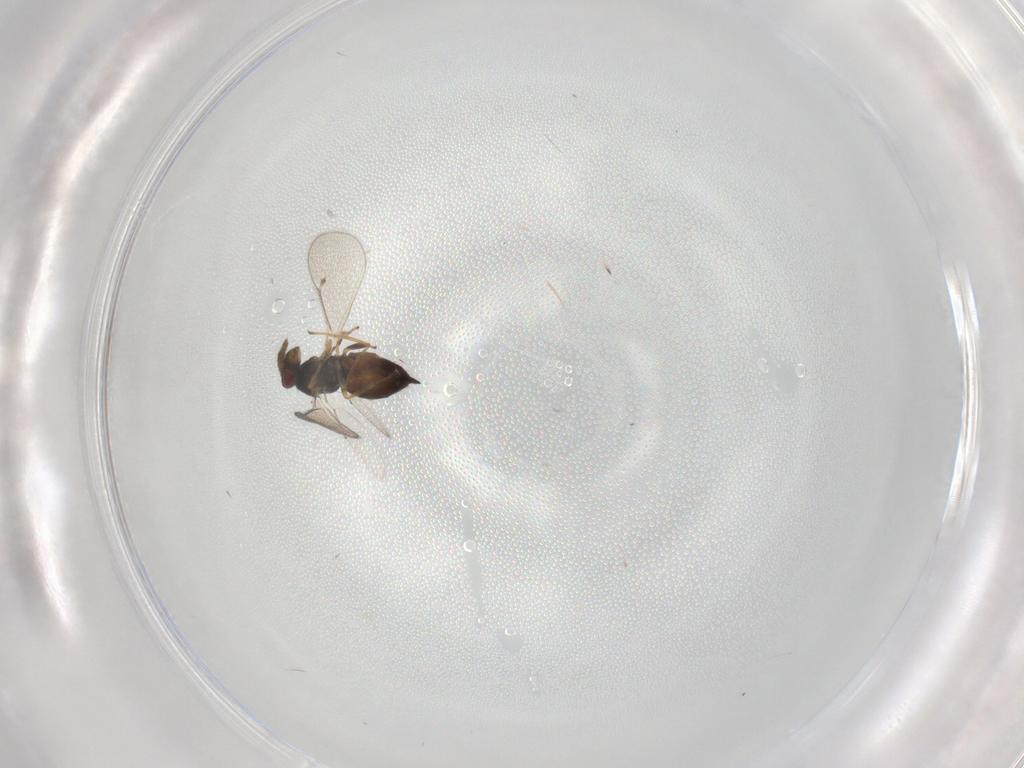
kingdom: Animalia
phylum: Arthropoda
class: Insecta
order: Hymenoptera
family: Eulophidae
